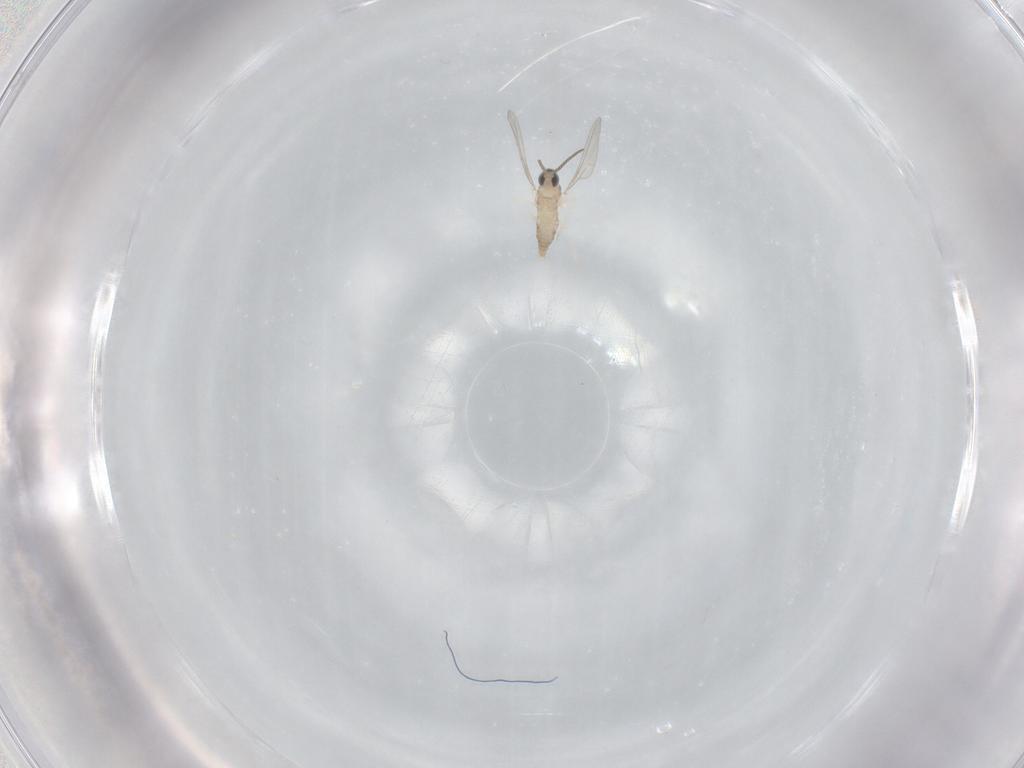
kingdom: Animalia
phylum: Arthropoda
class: Insecta
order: Diptera
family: Cecidomyiidae
